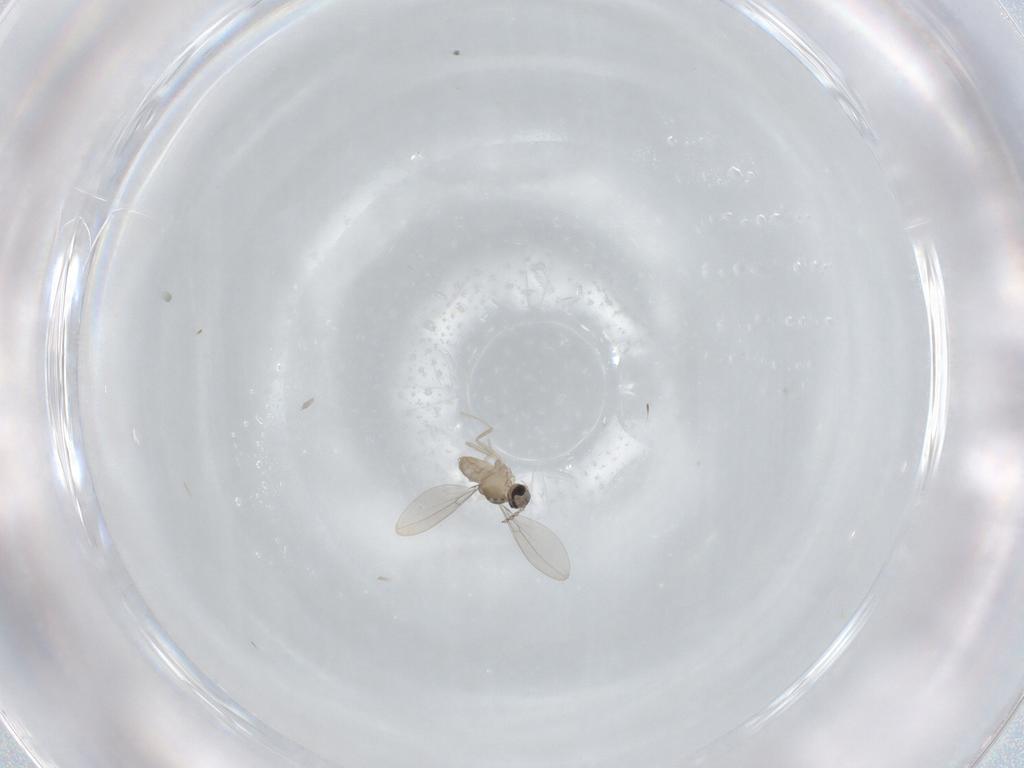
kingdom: Animalia
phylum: Arthropoda
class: Insecta
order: Diptera
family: Cecidomyiidae
